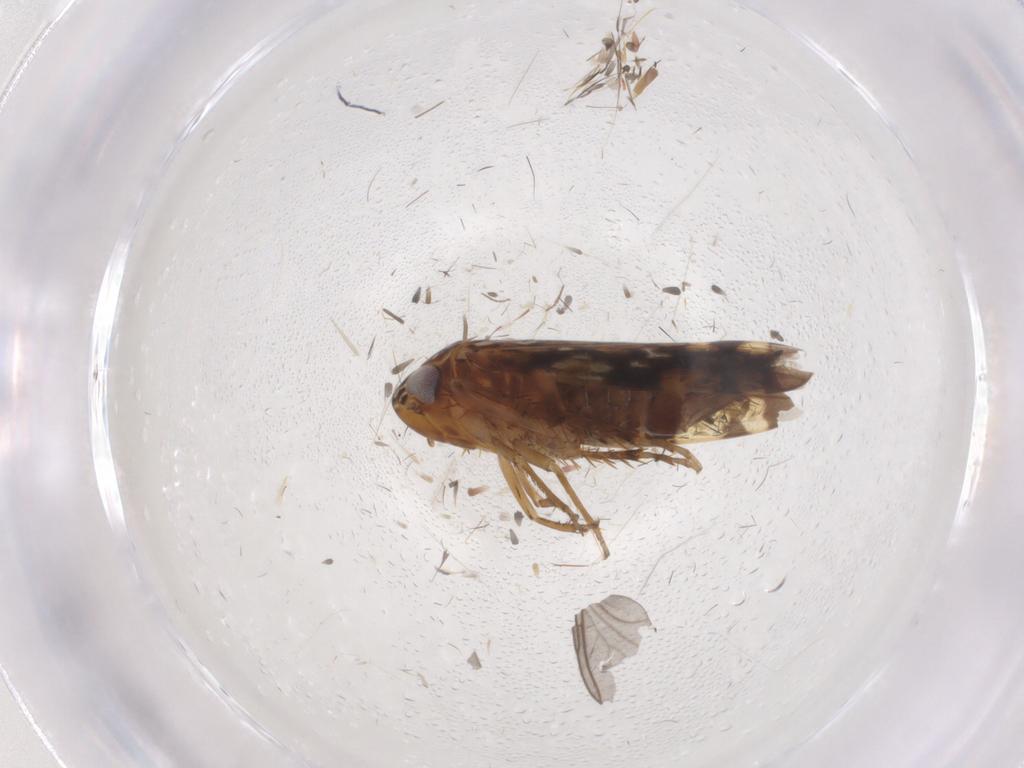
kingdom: Animalia
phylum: Arthropoda
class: Insecta
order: Hemiptera
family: Cicadellidae
